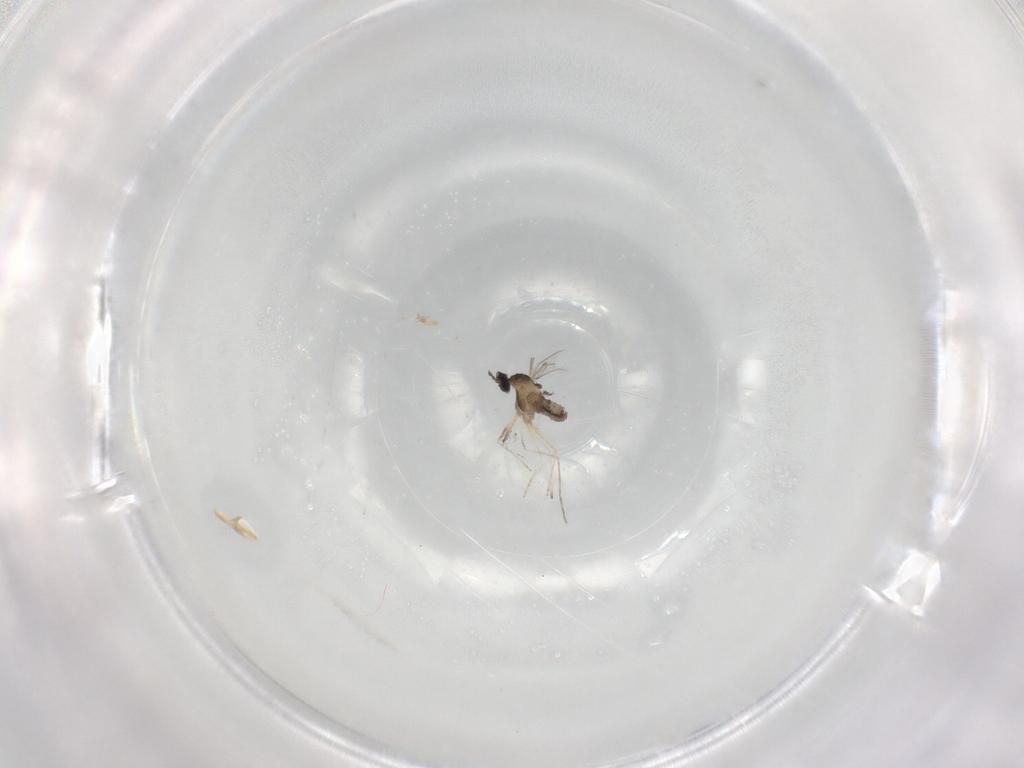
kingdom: Animalia
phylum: Arthropoda
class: Insecta
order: Diptera
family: Cecidomyiidae
